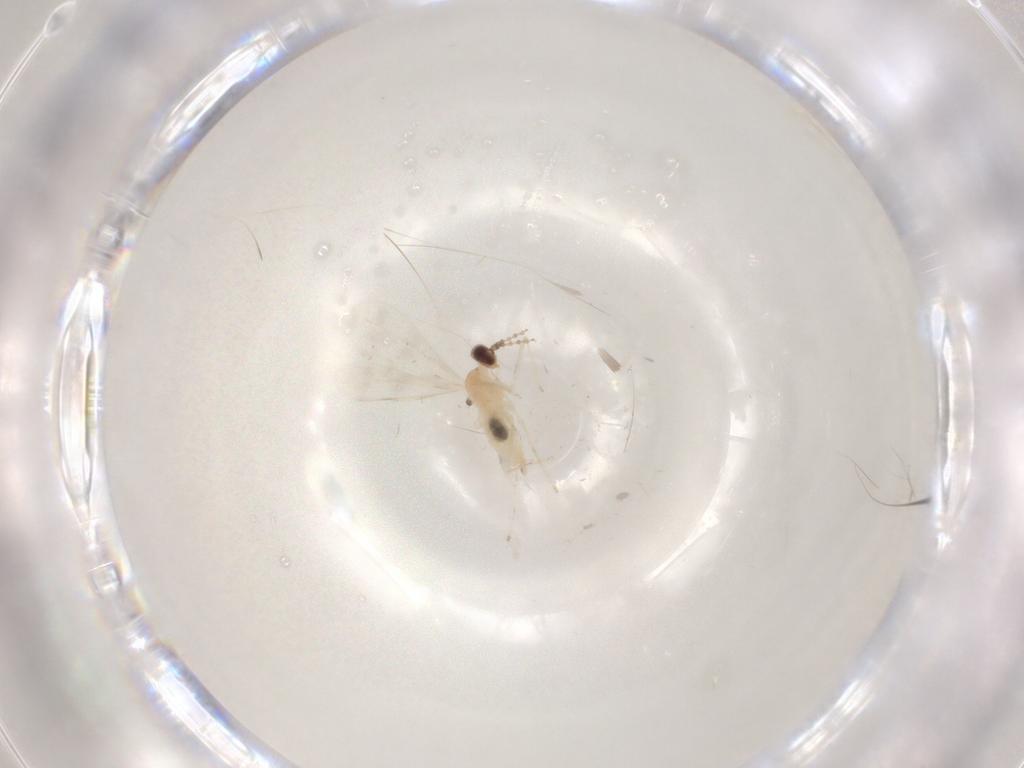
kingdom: Animalia
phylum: Arthropoda
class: Insecta
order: Diptera
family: Sciaridae
